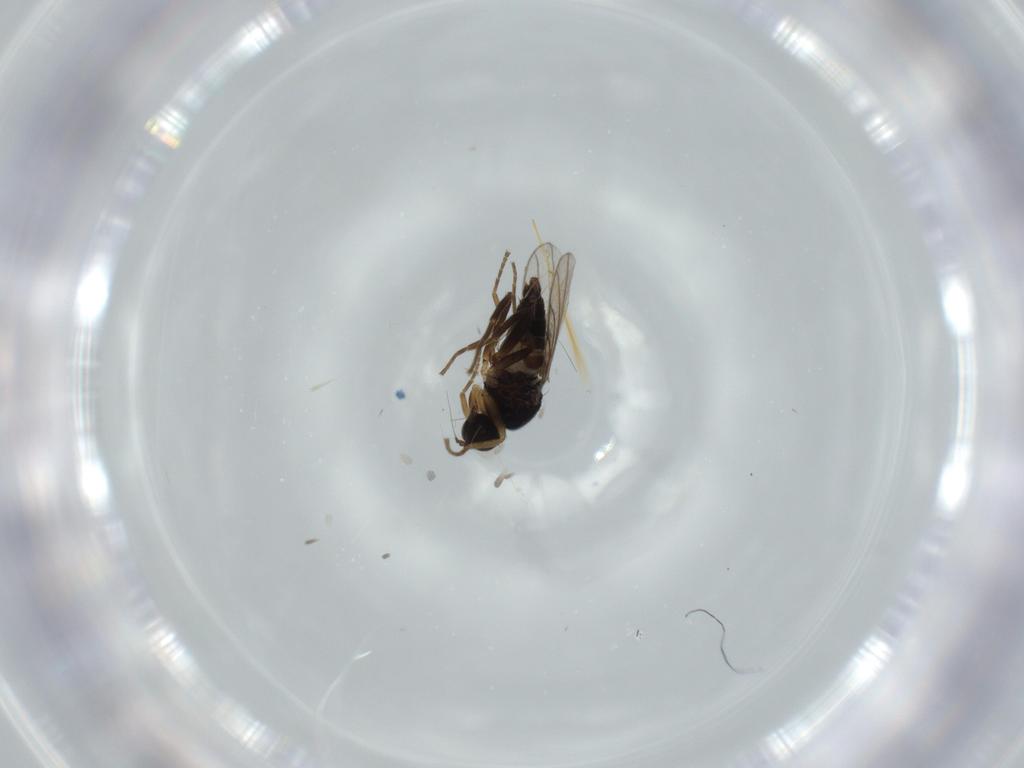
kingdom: Animalia
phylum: Arthropoda
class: Insecta
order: Diptera
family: Hybotidae
